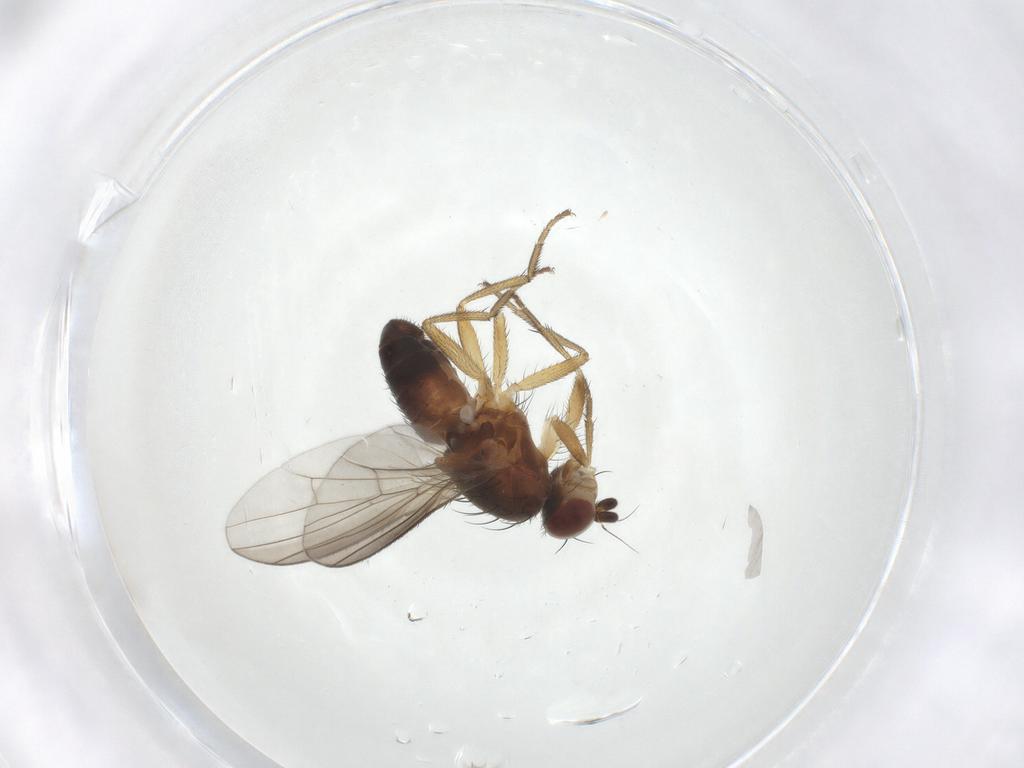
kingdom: Animalia
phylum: Arthropoda
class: Insecta
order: Diptera
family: Heleomyzidae
